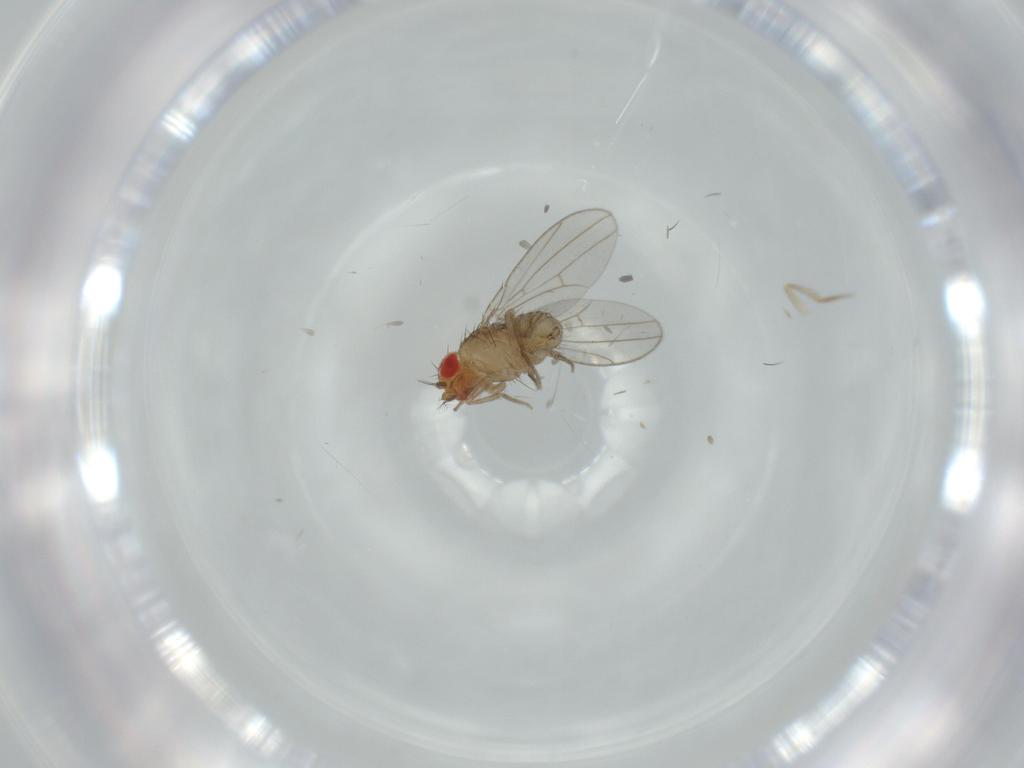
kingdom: Animalia
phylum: Arthropoda
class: Insecta
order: Diptera
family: Drosophilidae
